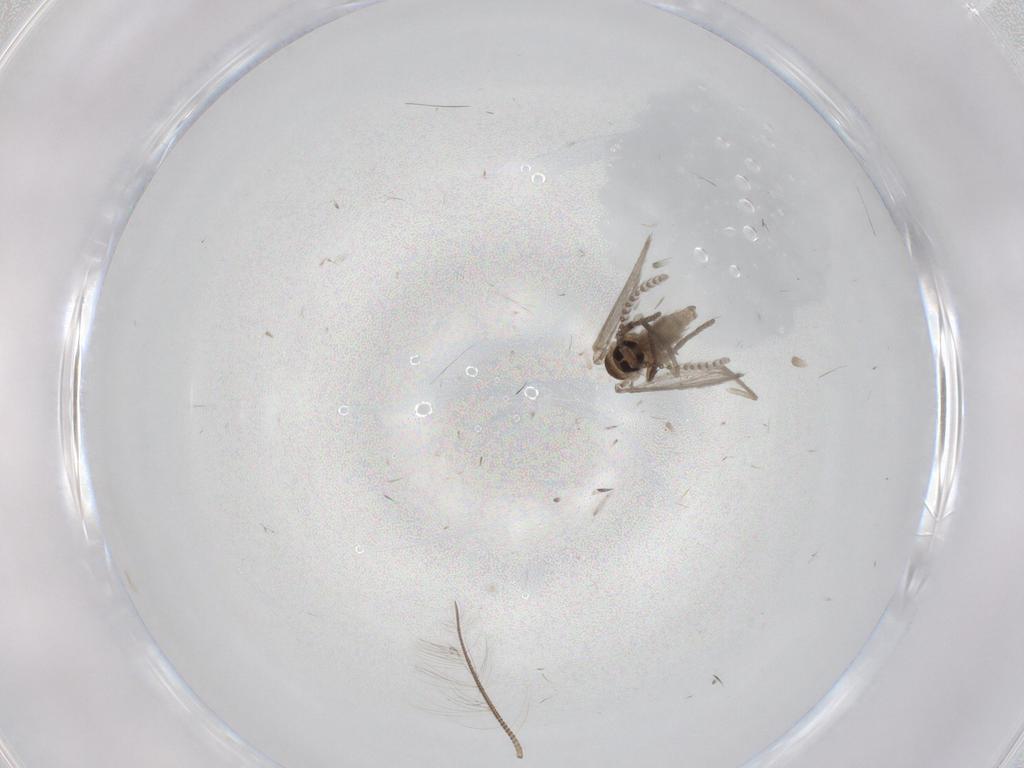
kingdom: Animalia
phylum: Arthropoda
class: Insecta
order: Diptera
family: Psychodidae
